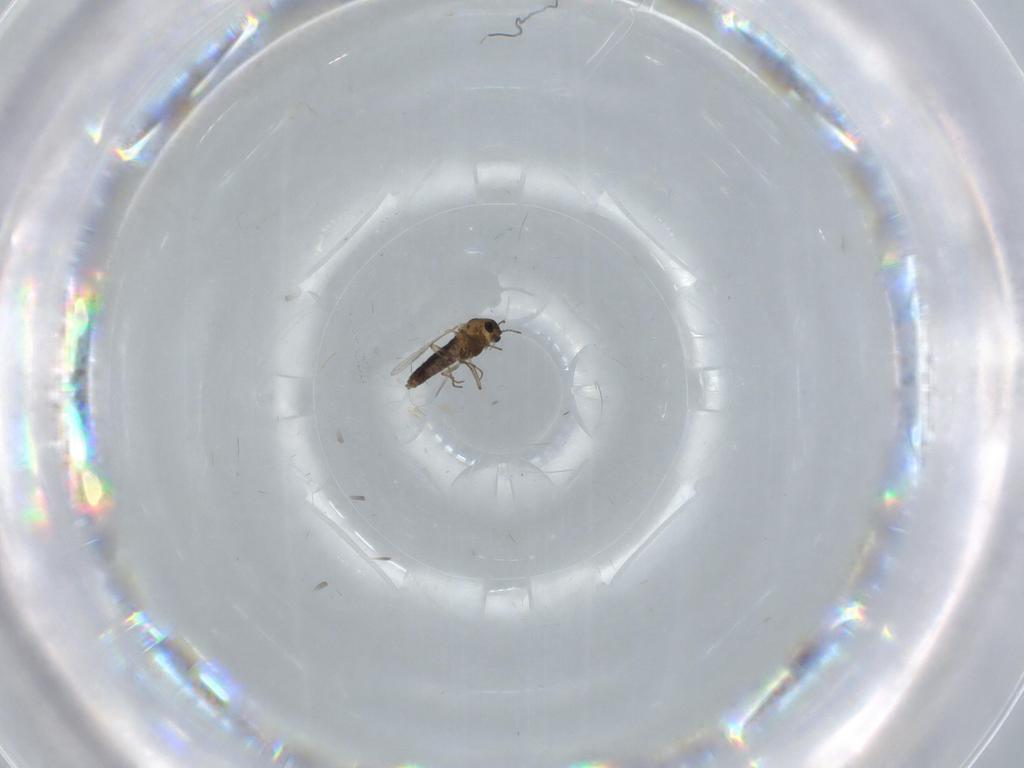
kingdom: Animalia
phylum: Arthropoda
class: Insecta
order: Diptera
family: Chironomidae
